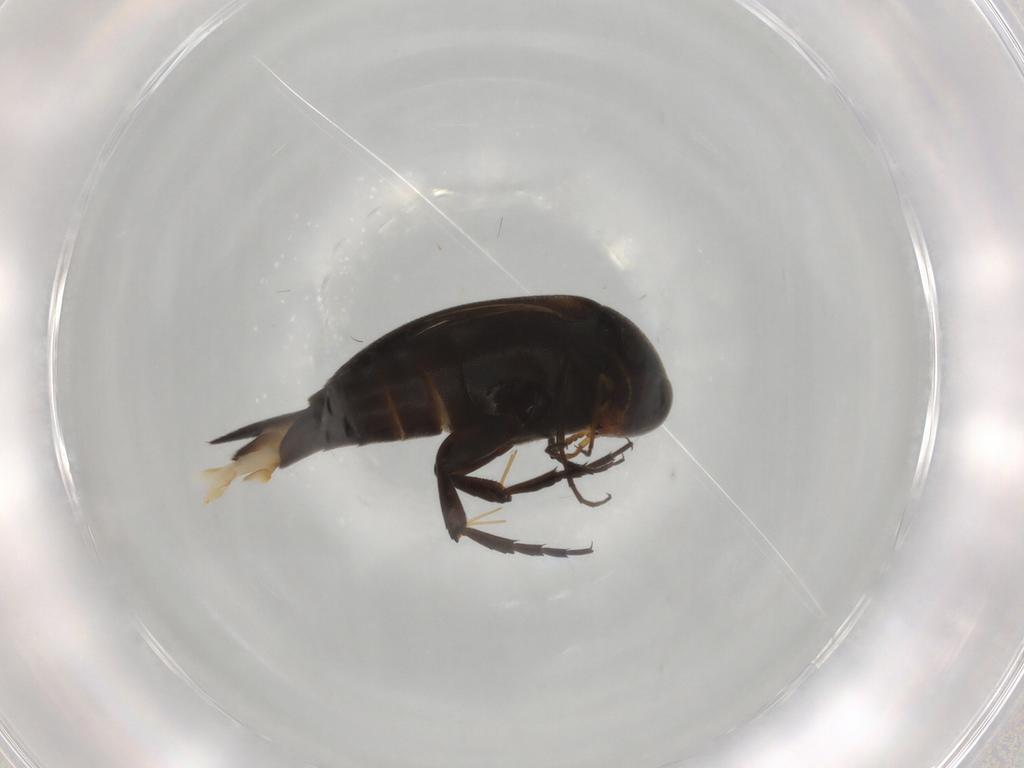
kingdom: Animalia
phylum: Arthropoda
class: Insecta
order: Coleoptera
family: Mordellidae
